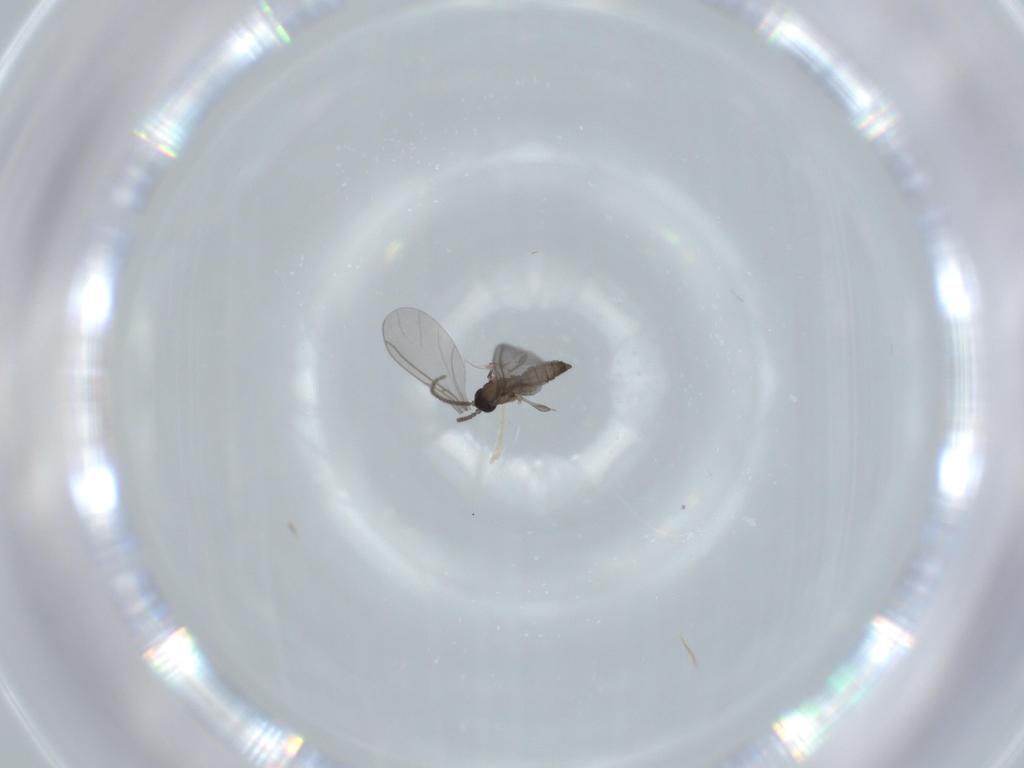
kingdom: Animalia
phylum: Arthropoda
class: Insecta
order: Diptera
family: Sciaridae
